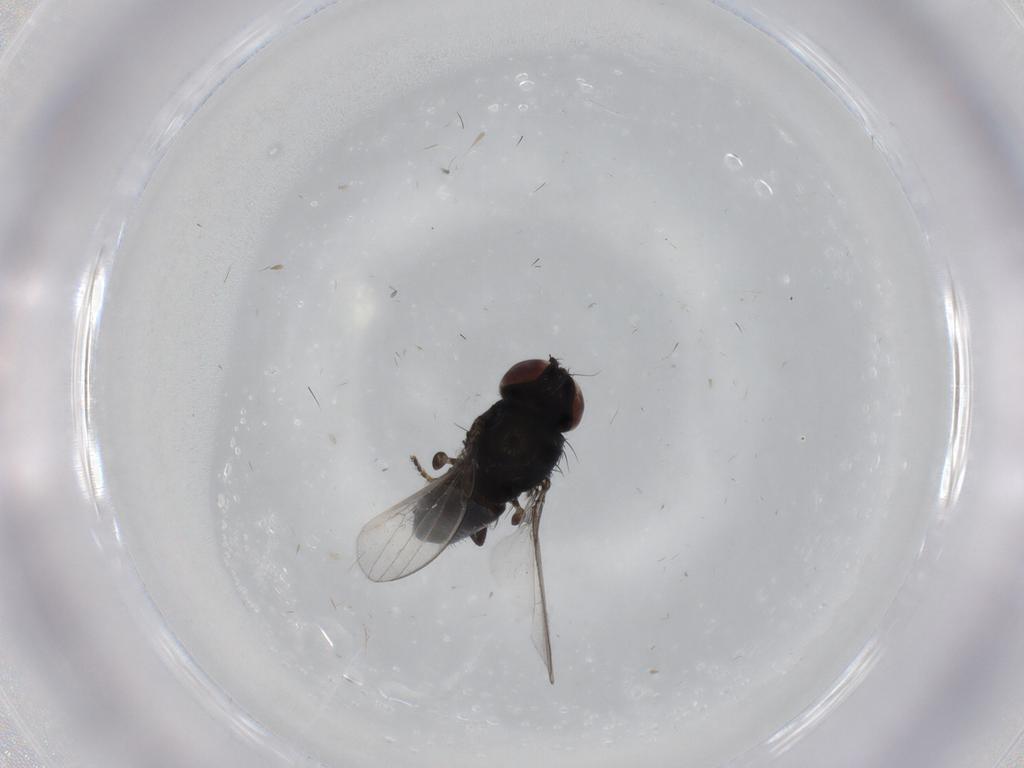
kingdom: Animalia
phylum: Arthropoda
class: Insecta
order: Diptera
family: Milichiidae
